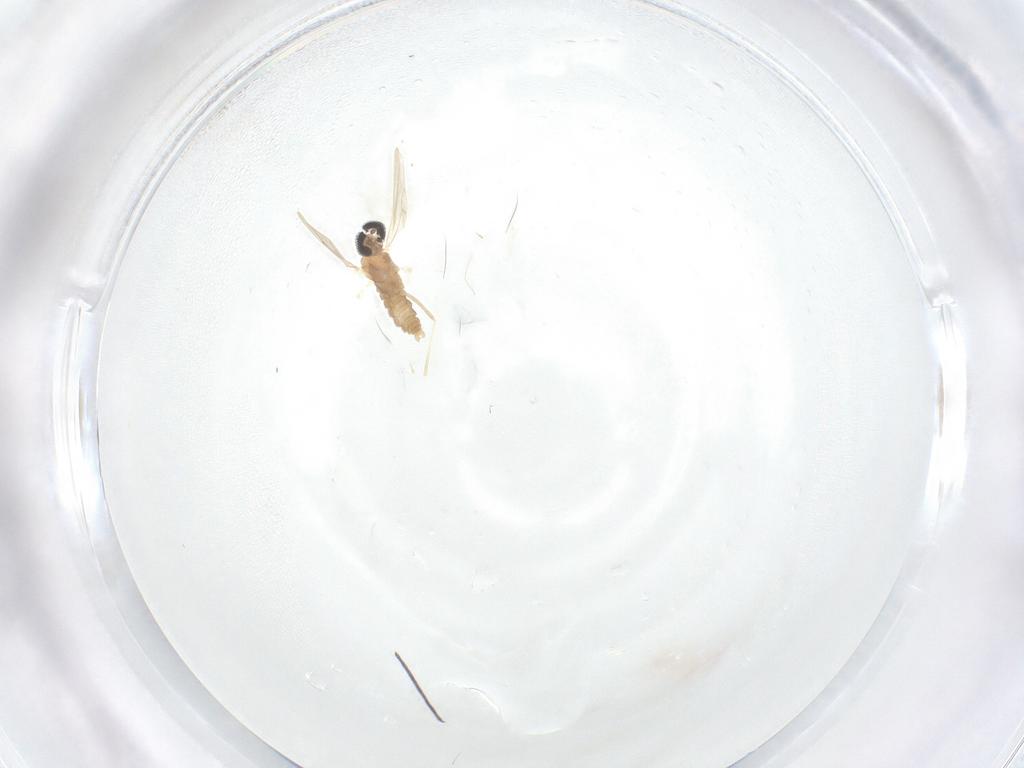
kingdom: Animalia
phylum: Arthropoda
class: Insecta
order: Diptera
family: Cecidomyiidae
